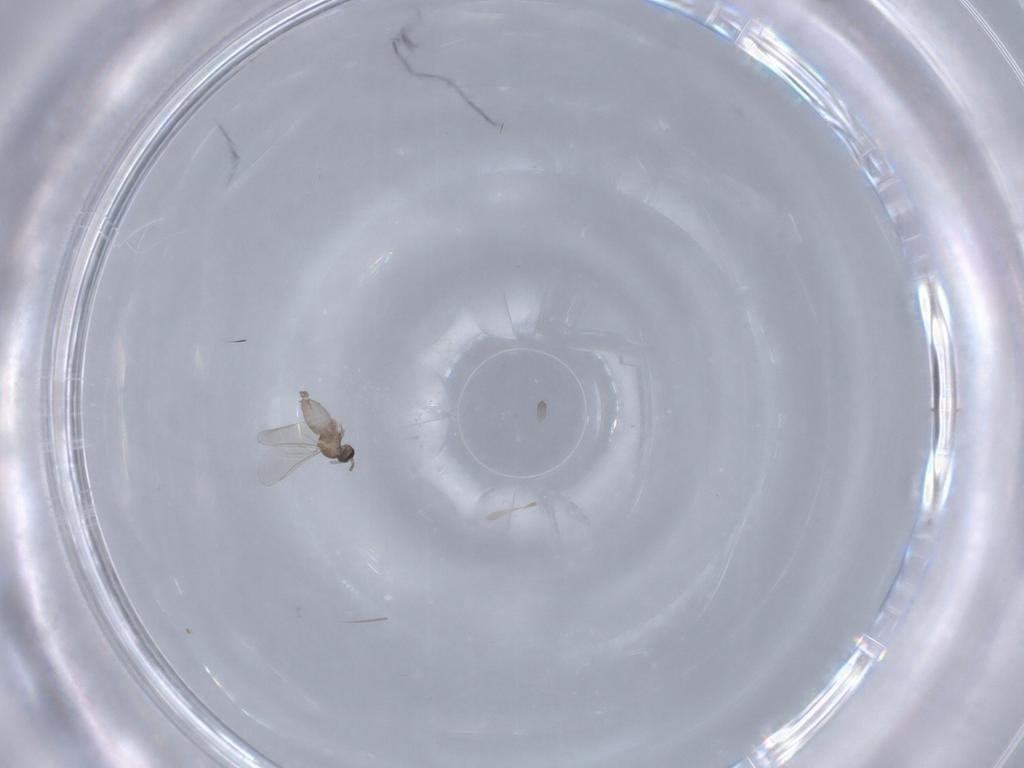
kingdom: Animalia
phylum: Arthropoda
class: Insecta
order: Diptera
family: Cecidomyiidae
